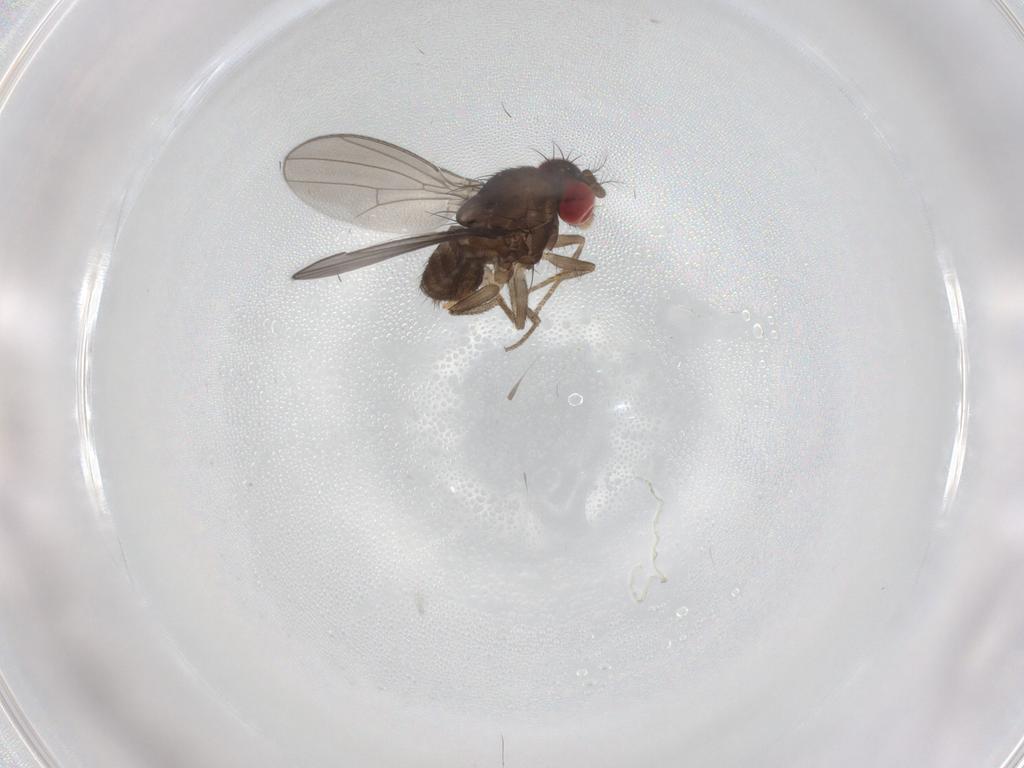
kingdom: Animalia
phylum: Arthropoda
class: Insecta
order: Diptera
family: Drosophilidae
